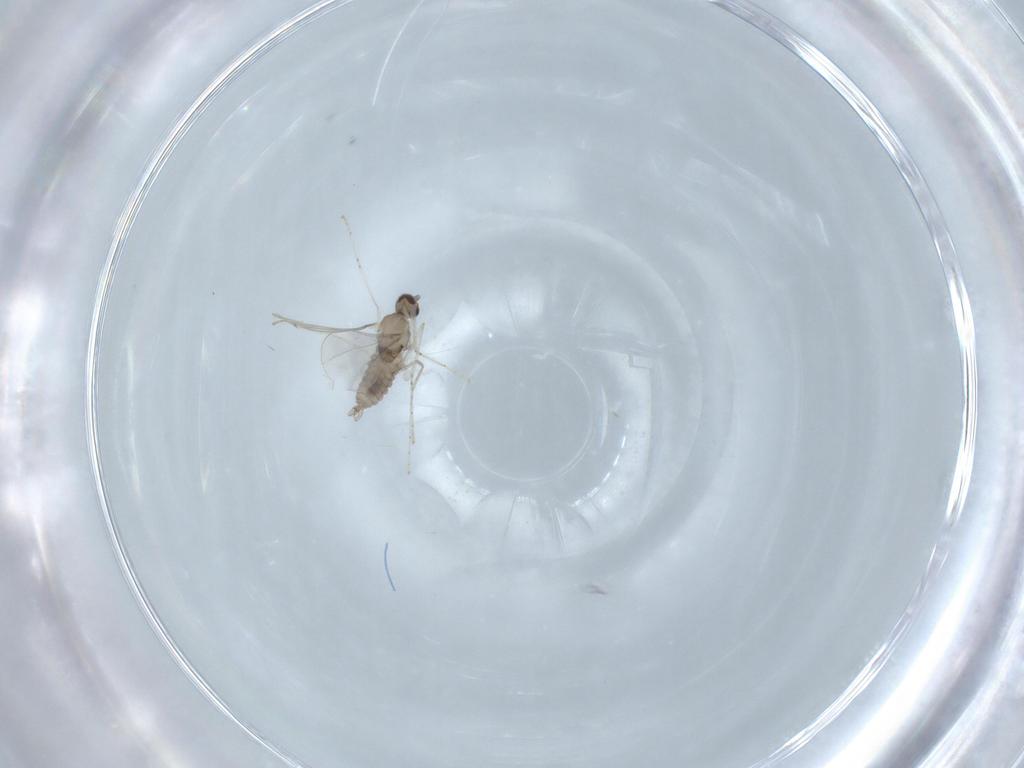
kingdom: Animalia
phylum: Arthropoda
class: Insecta
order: Diptera
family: Cecidomyiidae
